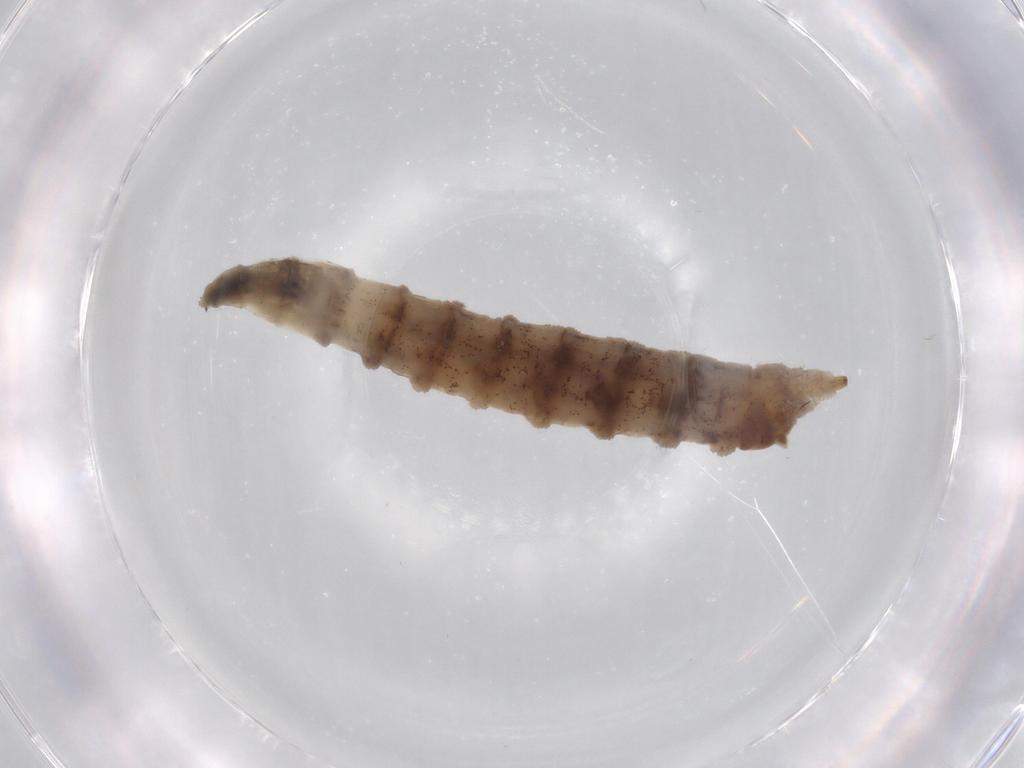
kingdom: Animalia
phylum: Arthropoda
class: Insecta
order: Diptera
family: Drosophilidae
